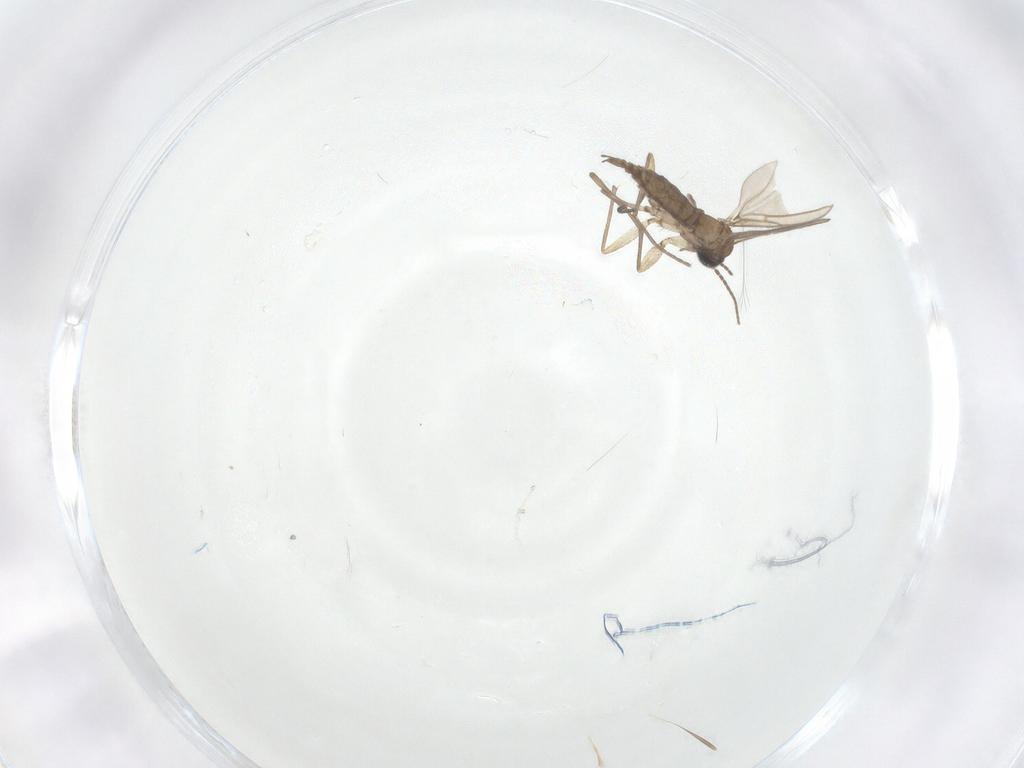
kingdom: Animalia
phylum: Arthropoda
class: Insecta
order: Diptera
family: Sciaridae
